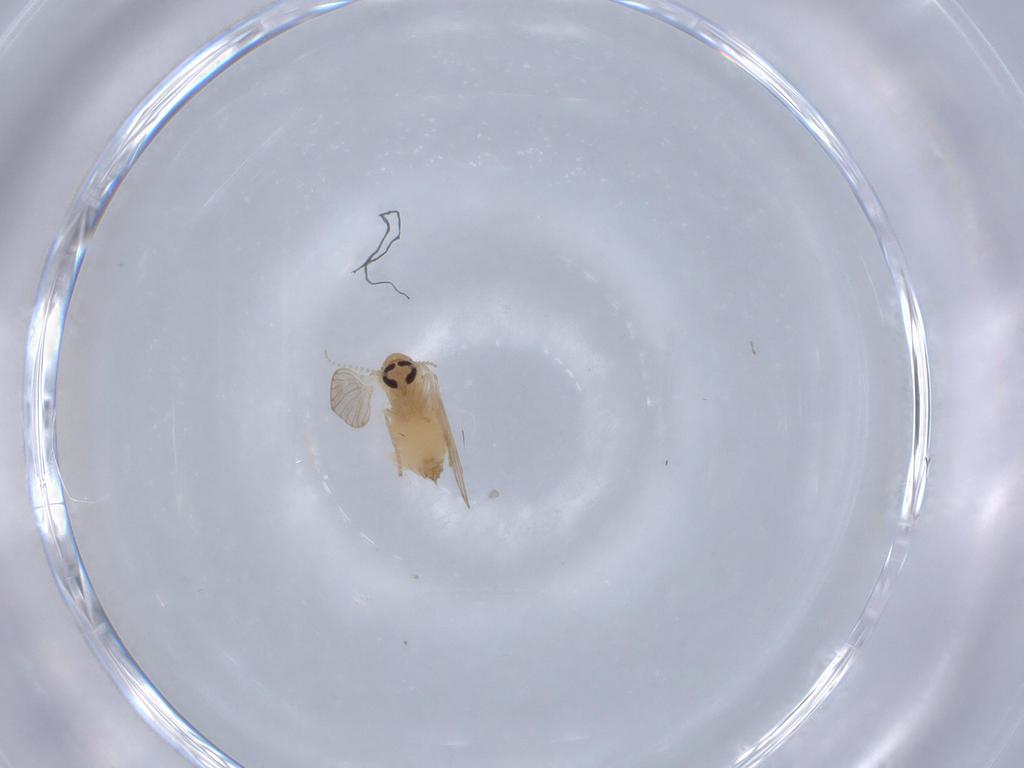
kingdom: Animalia
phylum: Arthropoda
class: Insecta
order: Diptera
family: Psychodidae
